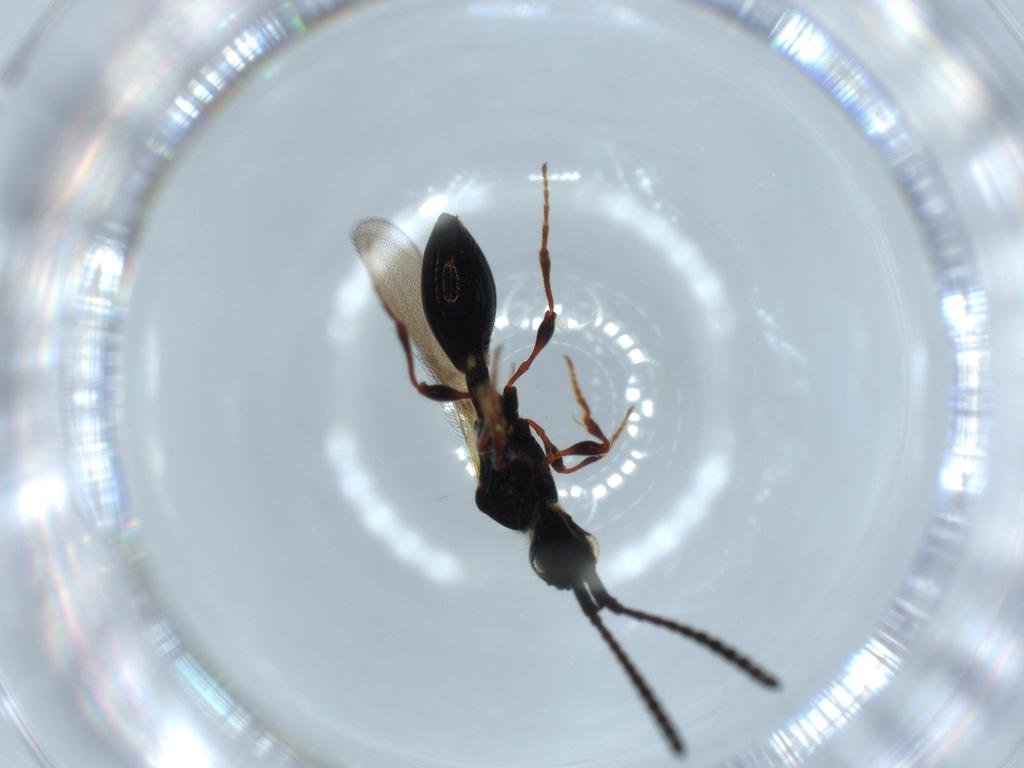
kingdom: Animalia
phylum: Arthropoda
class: Insecta
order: Hymenoptera
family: Diapriidae
